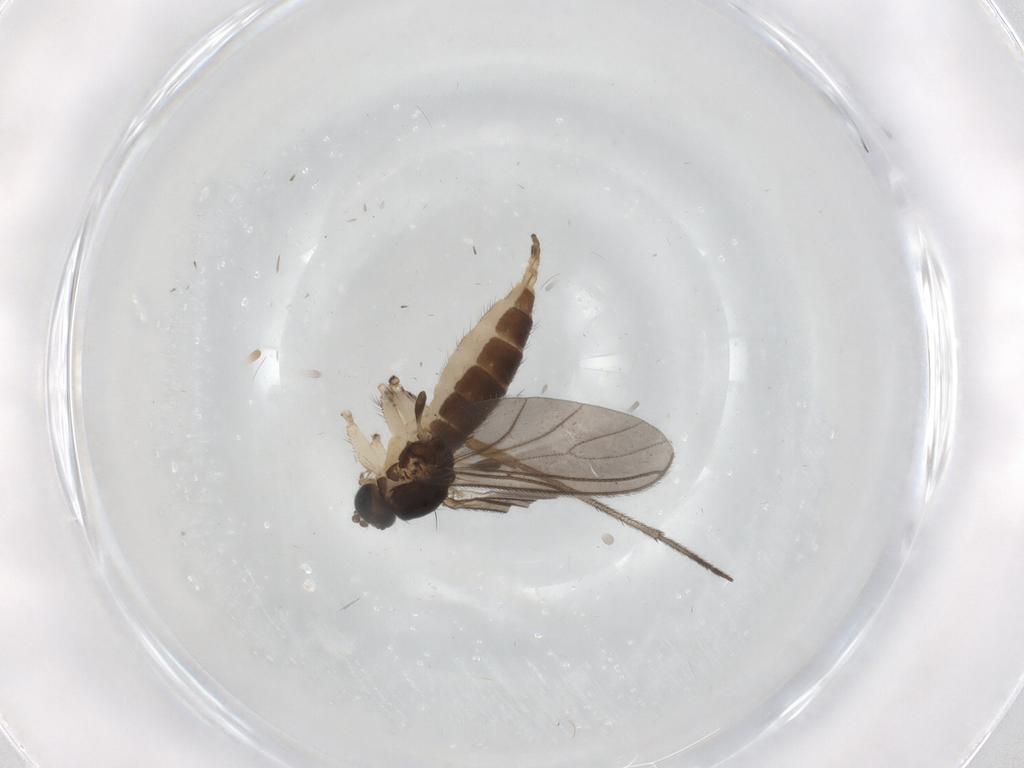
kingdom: Animalia
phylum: Arthropoda
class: Insecta
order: Diptera
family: Sciaridae
